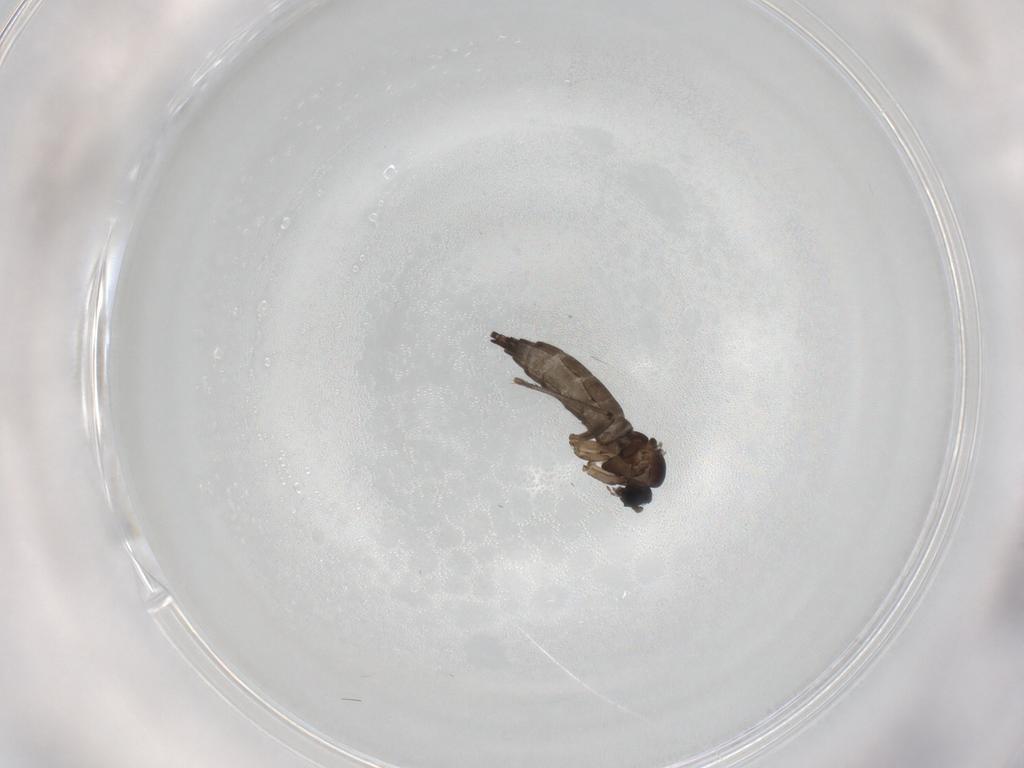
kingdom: Animalia
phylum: Arthropoda
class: Insecta
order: Diptera
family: Sciaridae
